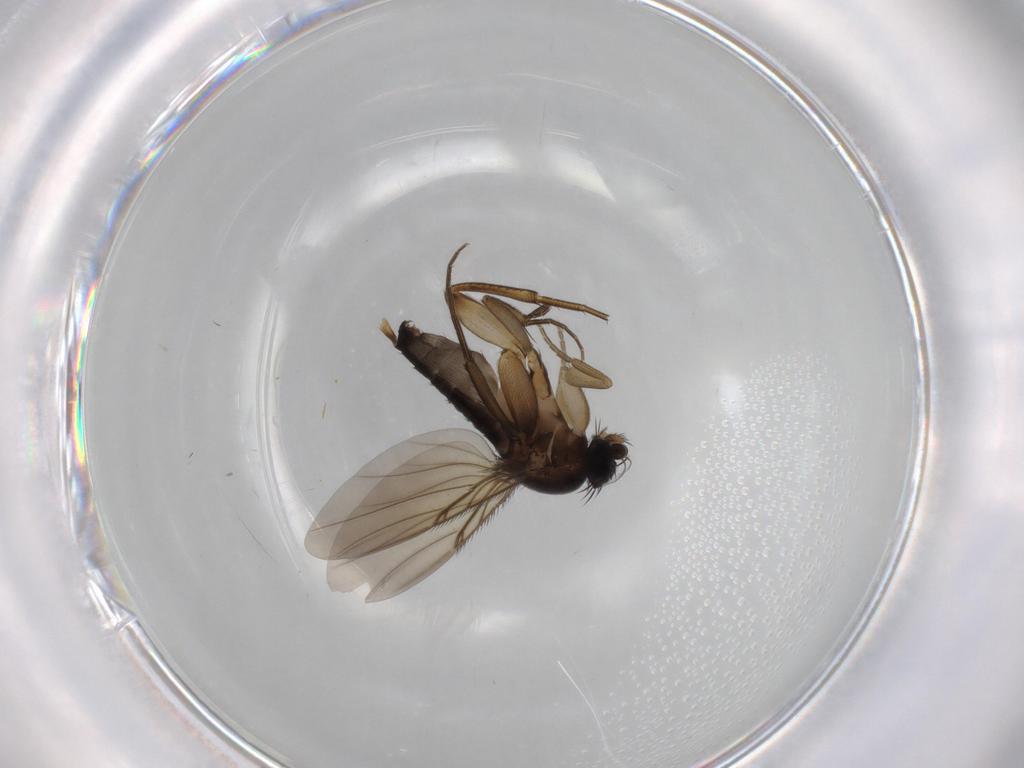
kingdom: Animalia
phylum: Arthropoda
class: Insecta
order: Diptera
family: Phoridae
